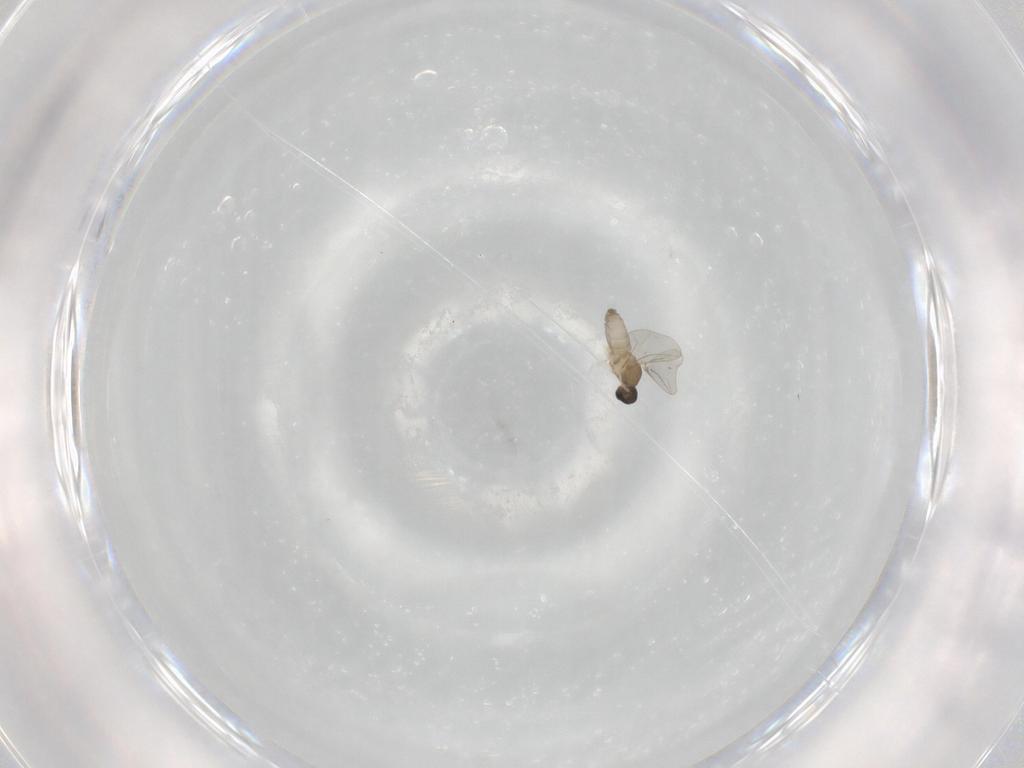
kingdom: Animalia
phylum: Arthropoda
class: Insecta
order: Diptera
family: Cecidomyiidae
